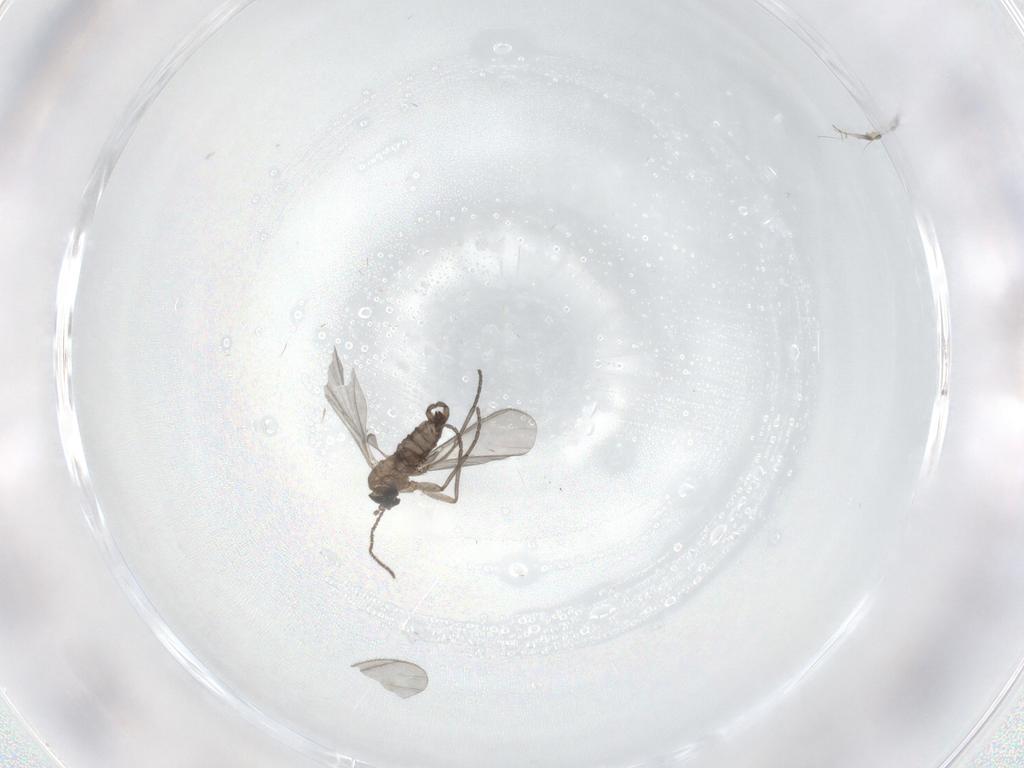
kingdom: Animalia
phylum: Arthropoda
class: Insecta
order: Diptera
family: Sciaridae
